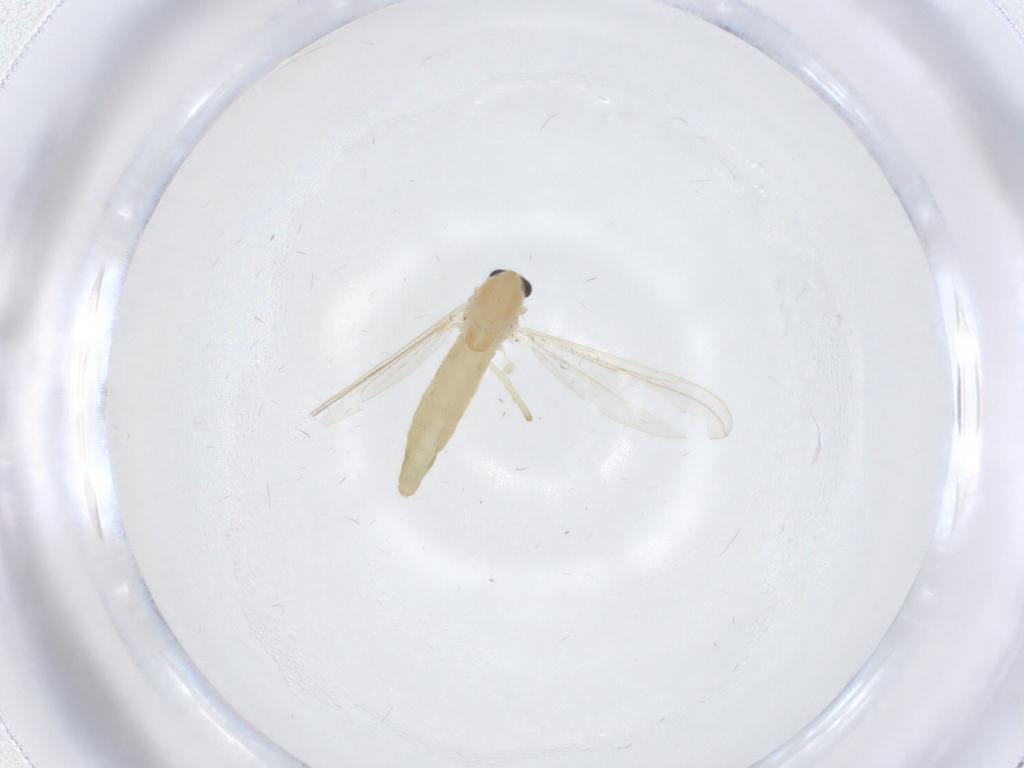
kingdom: Animalia
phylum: Arthropoda
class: Insecta
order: Diptera
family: Limoniidae
